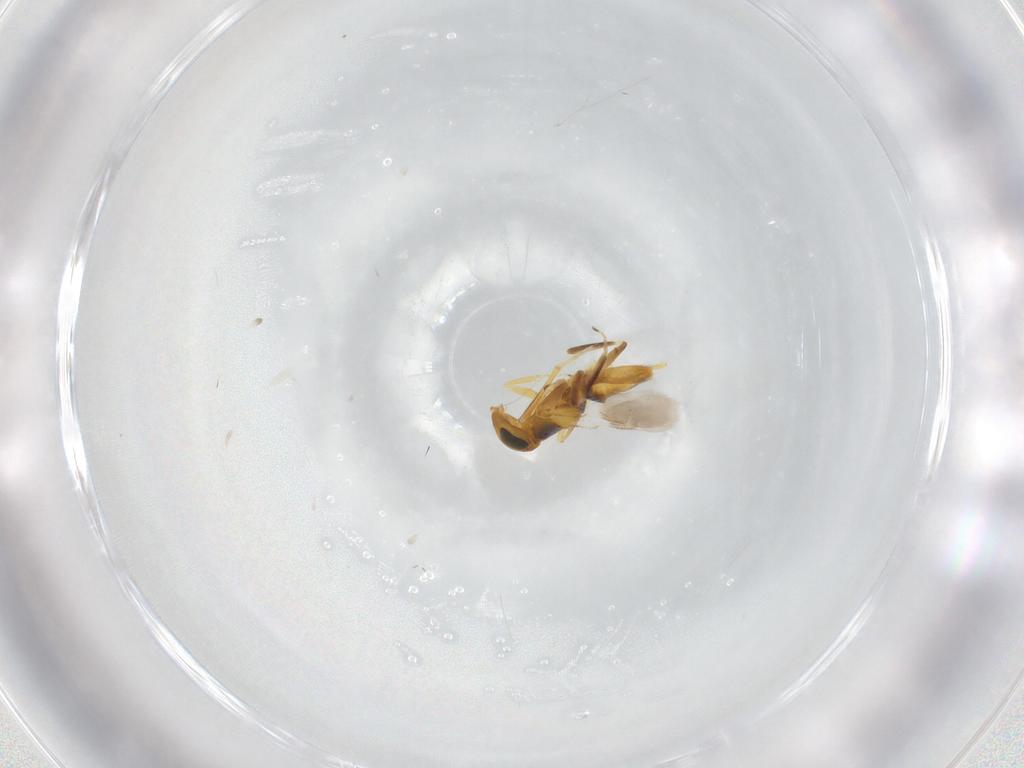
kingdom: Animalia
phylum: Arthropoda
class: Insecta
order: Hymenoptera
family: Encyrtidae
